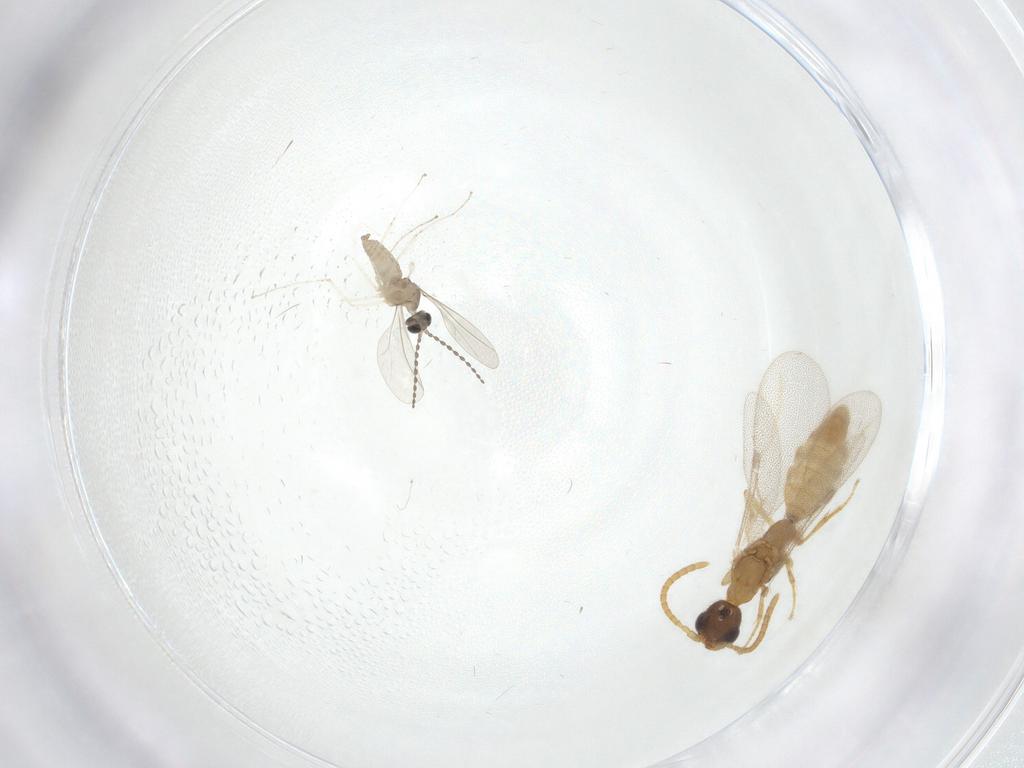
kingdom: Animalia
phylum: Arthropoda
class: Insecta
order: Hymenoptera
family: Bethylidae
